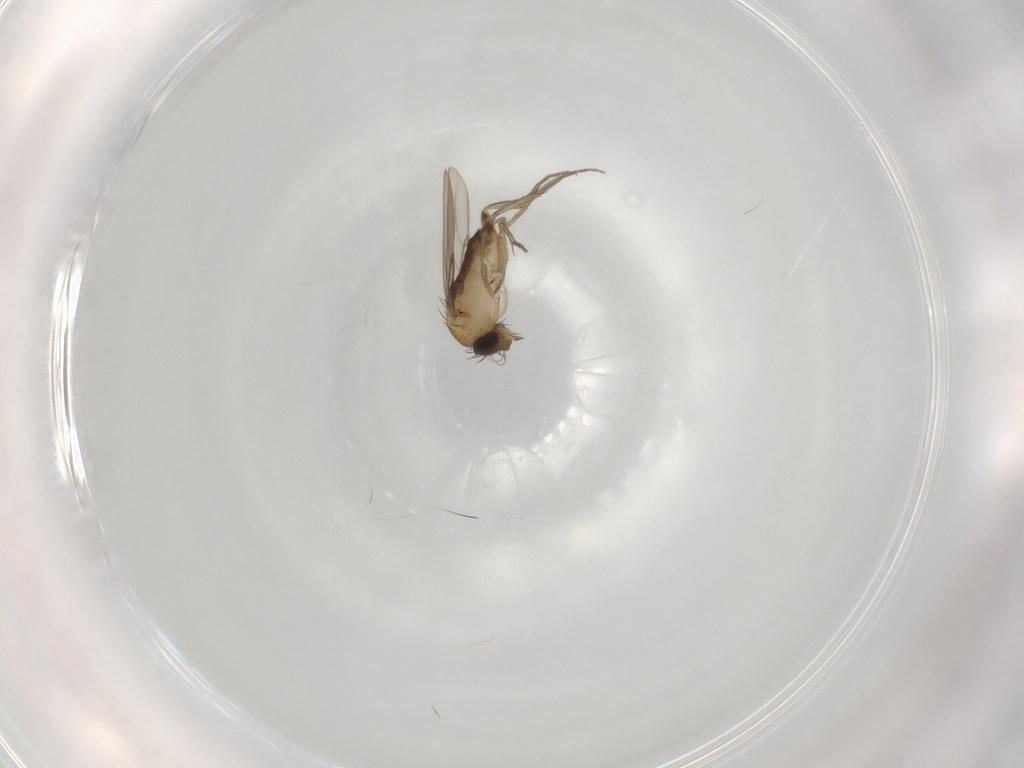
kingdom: Animalia
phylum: Arthropoda
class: Insecta
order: Diptera
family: Phoridae
